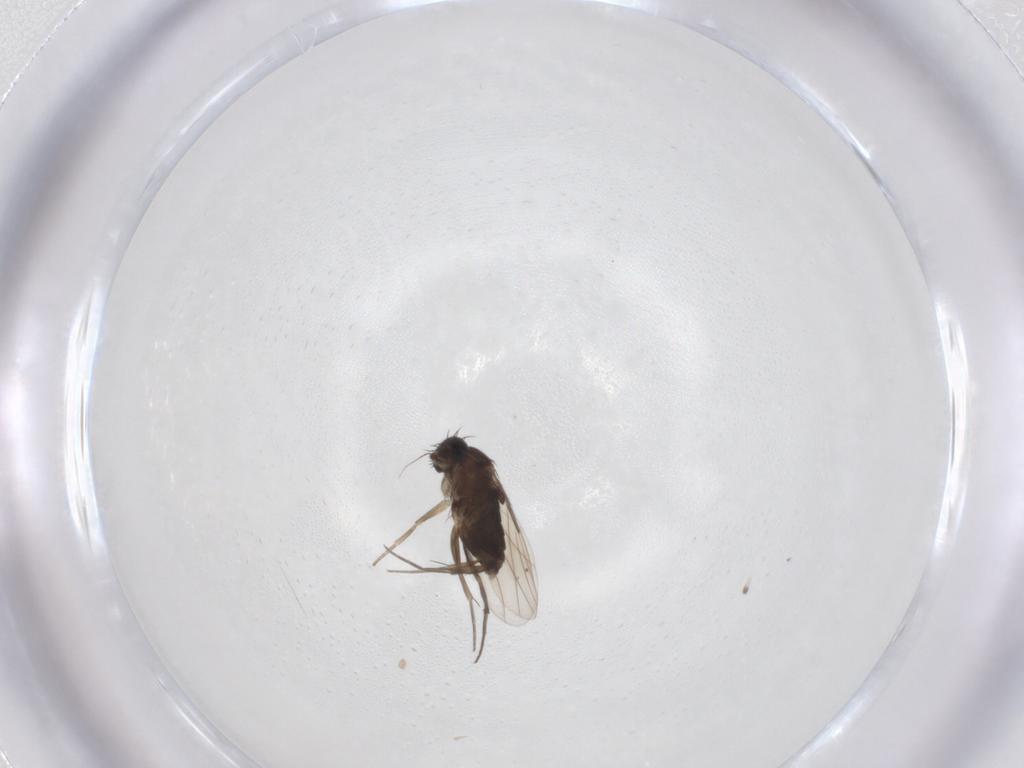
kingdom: Animalia
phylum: Arthropoda
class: Insecta
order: Diptera
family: Phoridae
